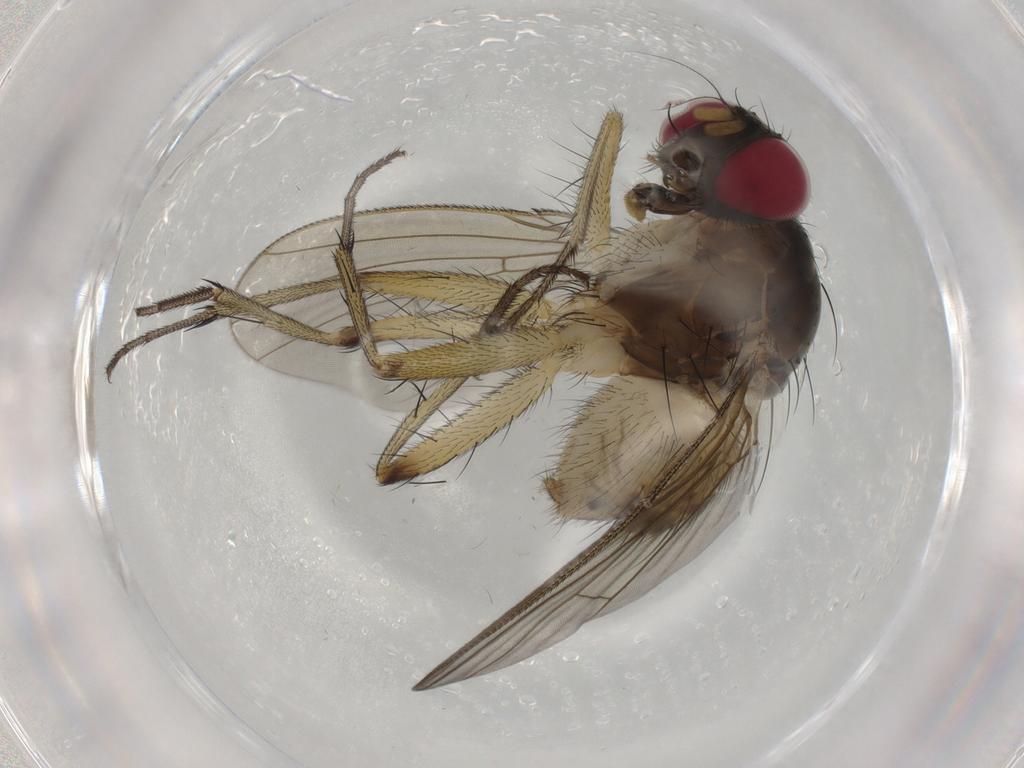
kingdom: Animalia
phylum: Arthropoda
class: Insecta
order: Diptera
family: Muscidae
